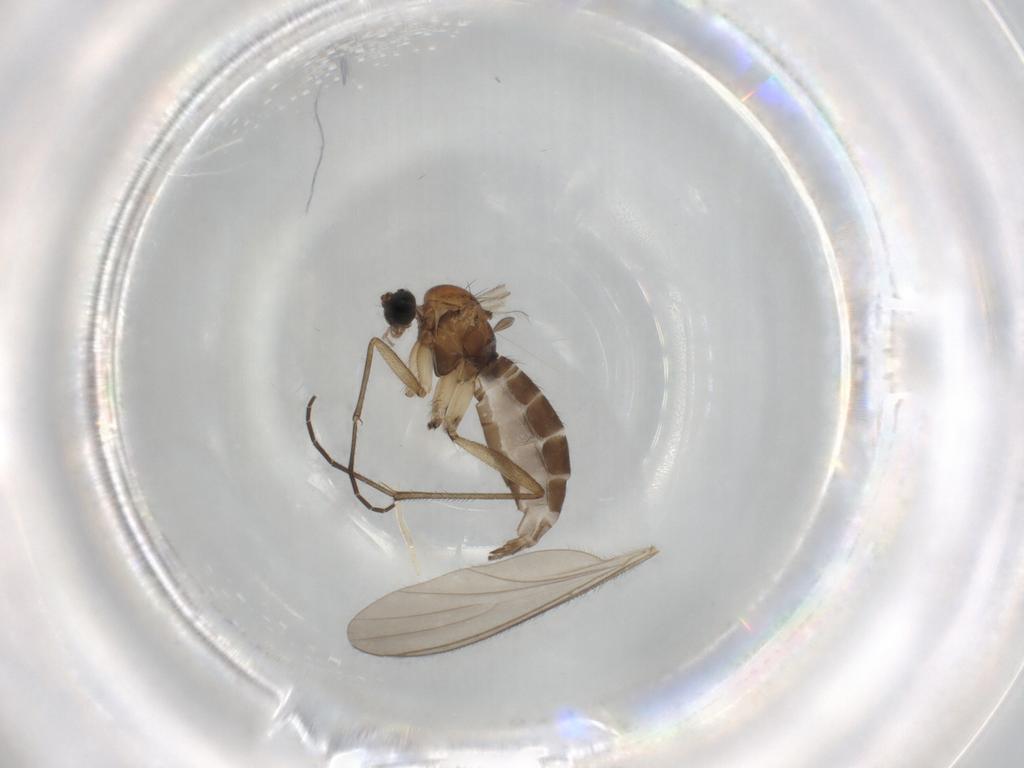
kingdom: Animalia
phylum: Arthropoda
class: Insecta
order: Diptera
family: Sciaridae
